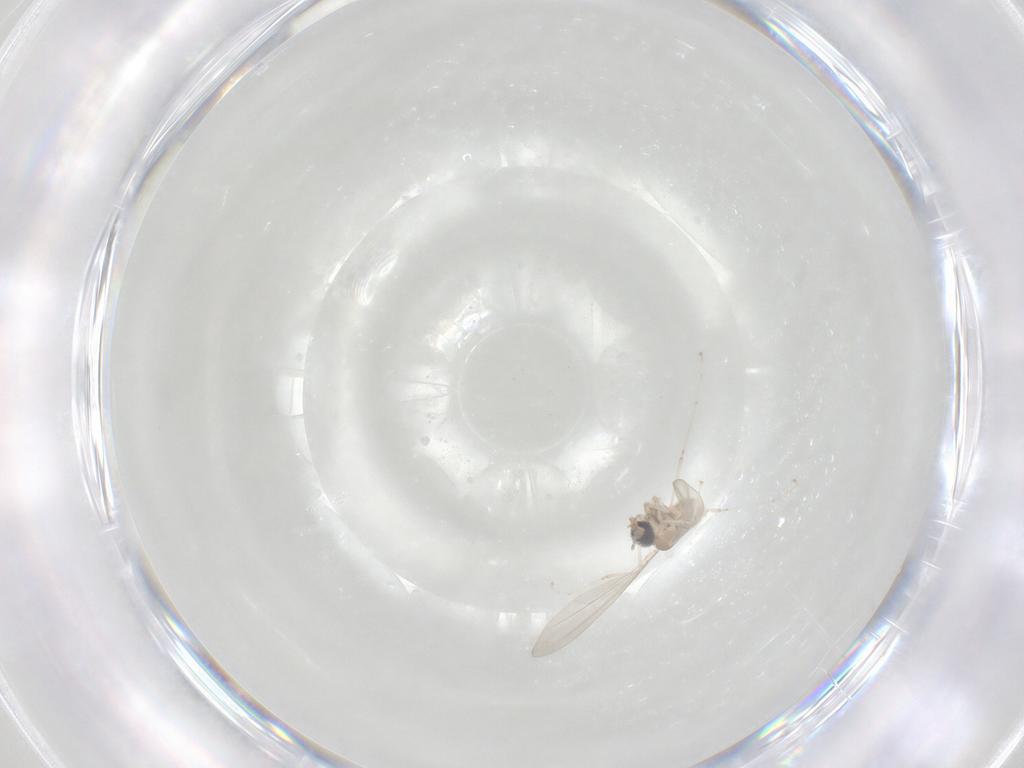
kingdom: Animalia
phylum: Arthropoda
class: Insecta
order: Diptera
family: Cecidomyiidae
